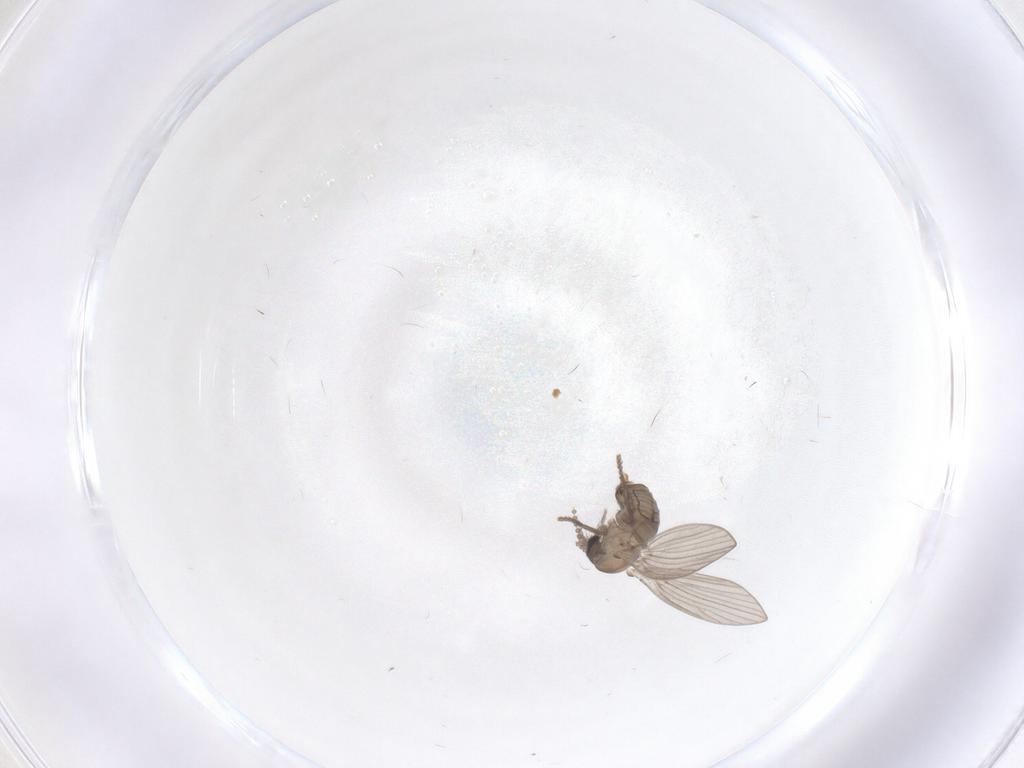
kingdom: Animalia
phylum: Arthropoda
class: Insecta
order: Diptera
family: Psychodidae
